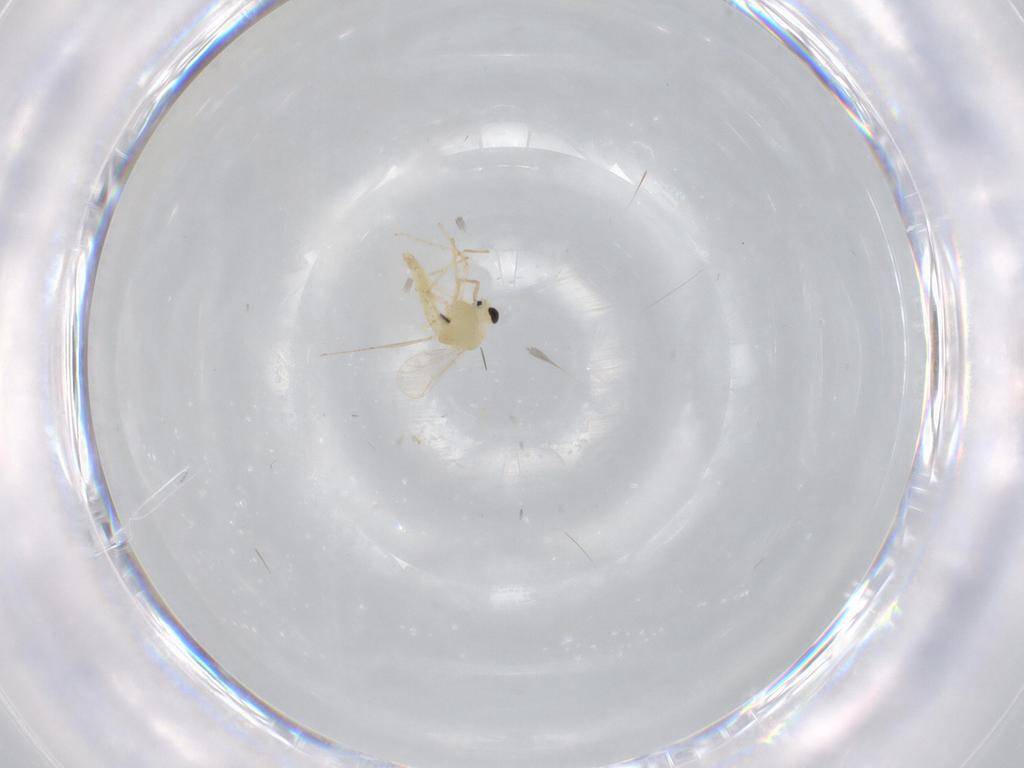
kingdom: Animalia
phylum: Arthropoda
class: Insecta
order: Diptera
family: Chironomidae
